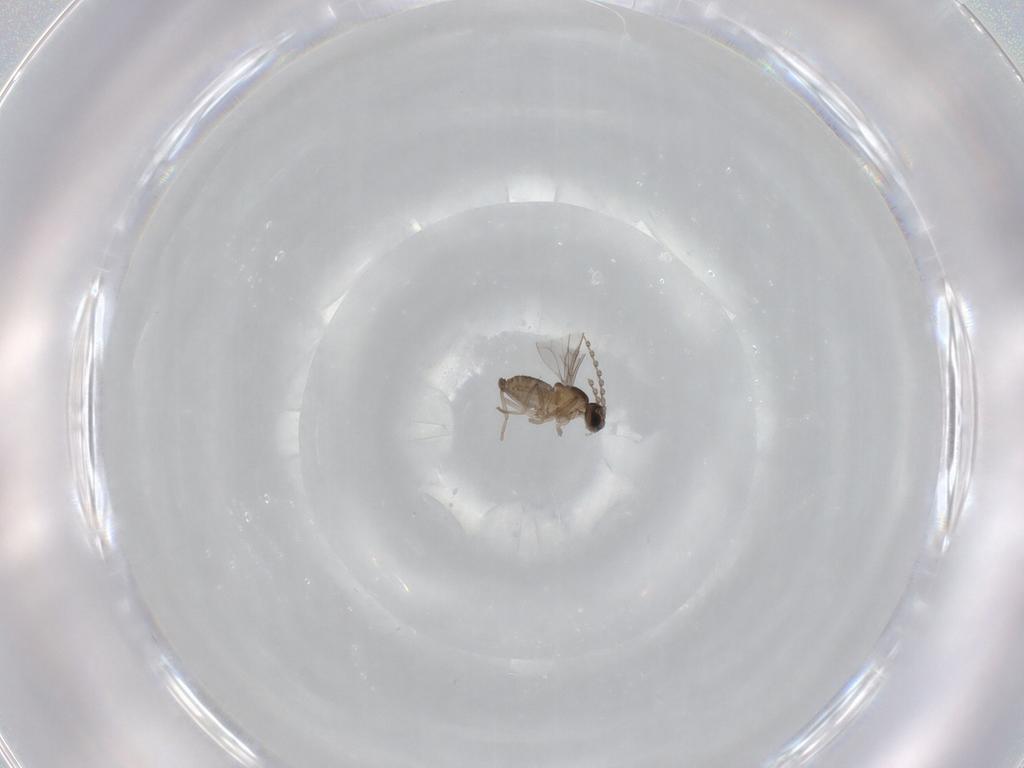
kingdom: Animalia
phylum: Arthropoda
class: Insecta
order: Diptera
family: Cecidomyiidae
